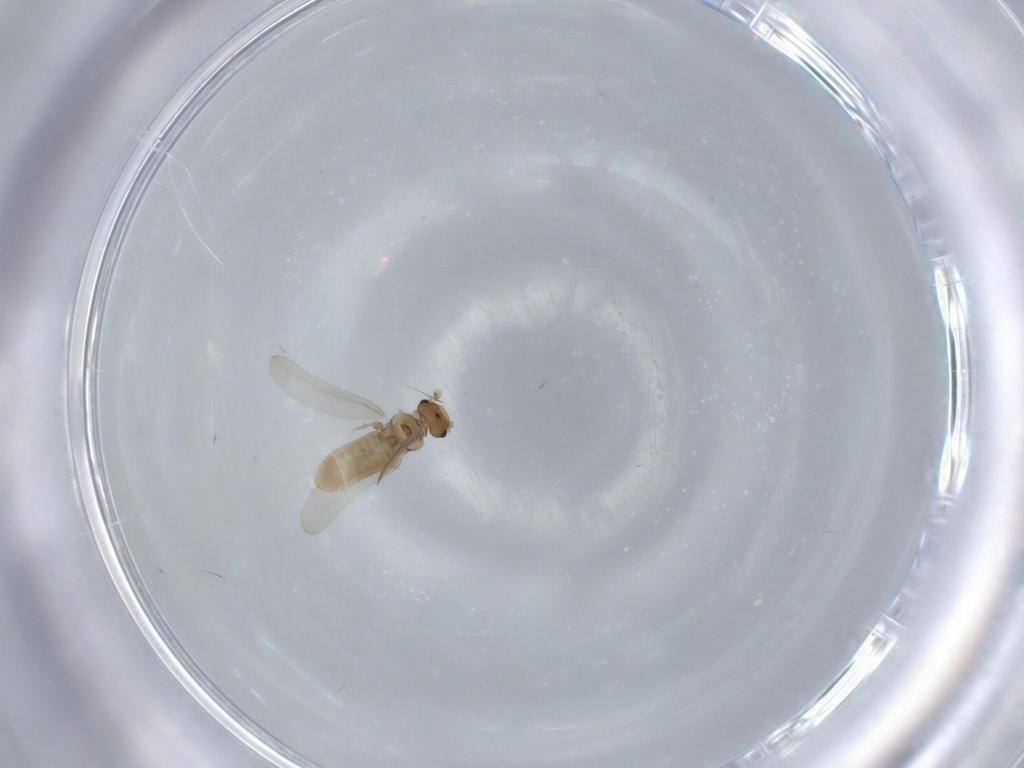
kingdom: Animalia
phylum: Arthropoda
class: Insecta
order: Psocodea
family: Liposcelididae
